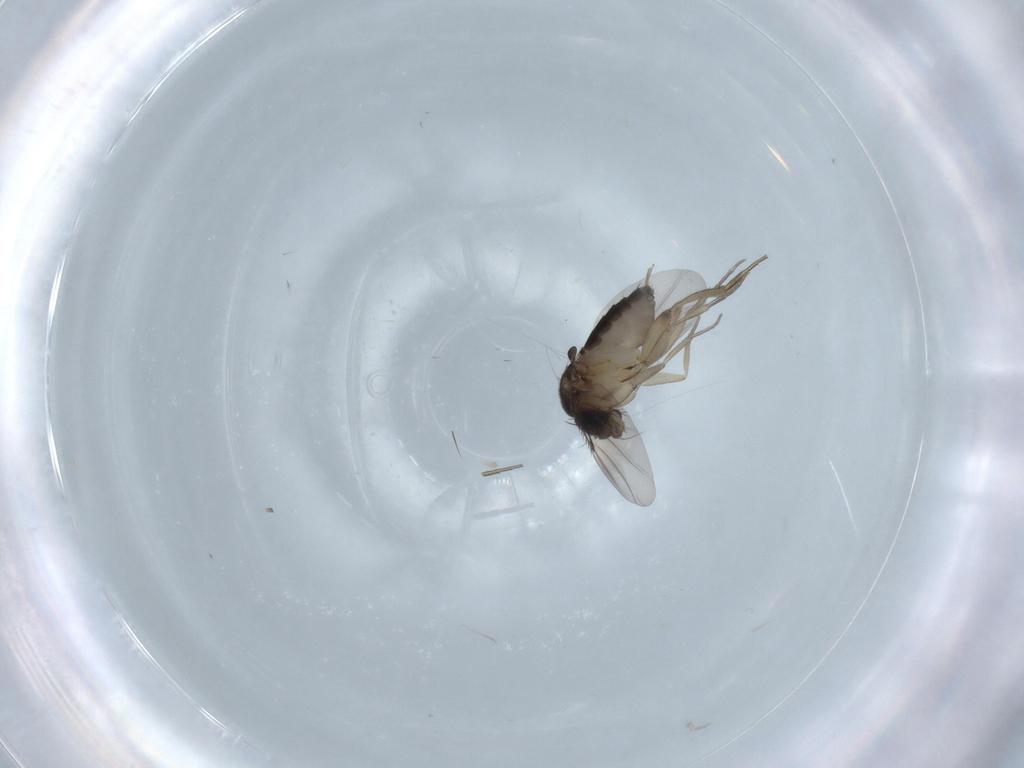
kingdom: Animalia
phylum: Arthropoda
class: Insecta
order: Diptera
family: Phoridae
